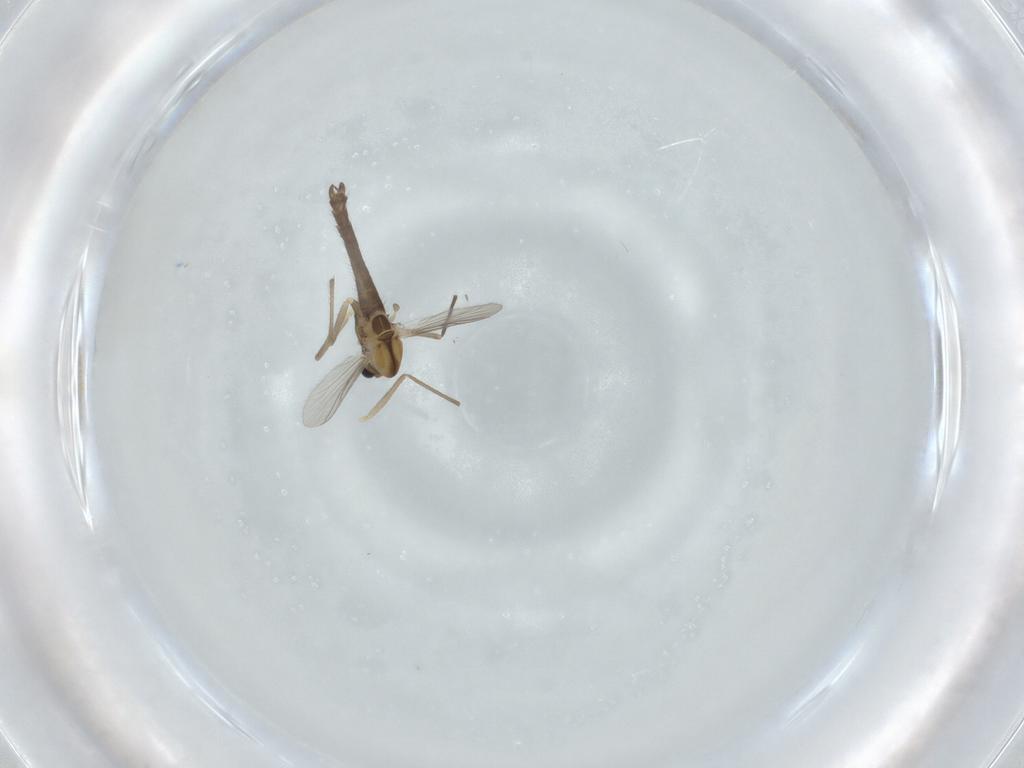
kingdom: Animalia
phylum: Arthropoda
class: Insecta
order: Diptera
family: Chironomidae
